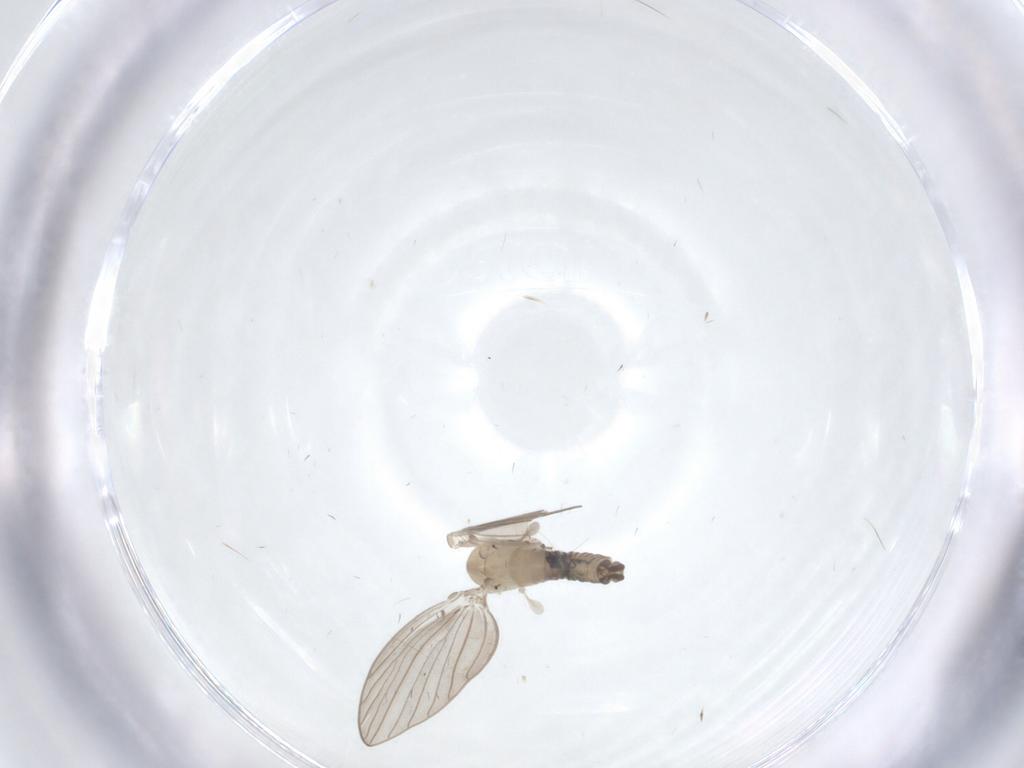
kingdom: Animalia
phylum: Arthropoda
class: Insecta
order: Diptera
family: Psychodidae
